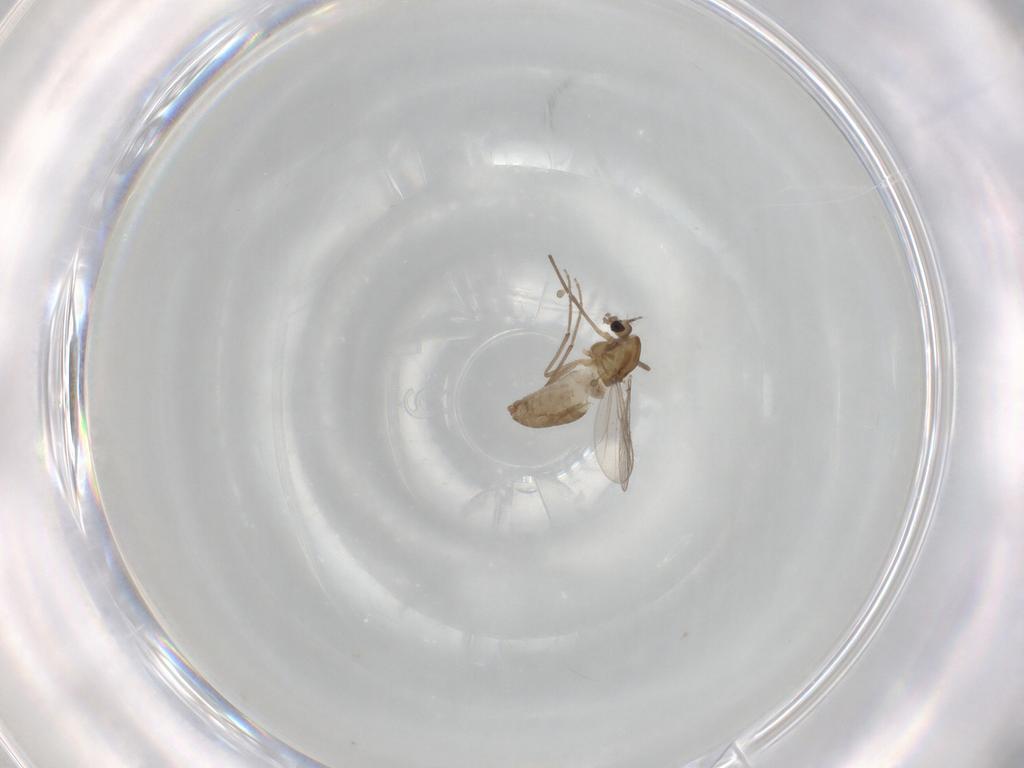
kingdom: Animalia
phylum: Arthropoda
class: Insecta
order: Diptera
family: Chironomidae
